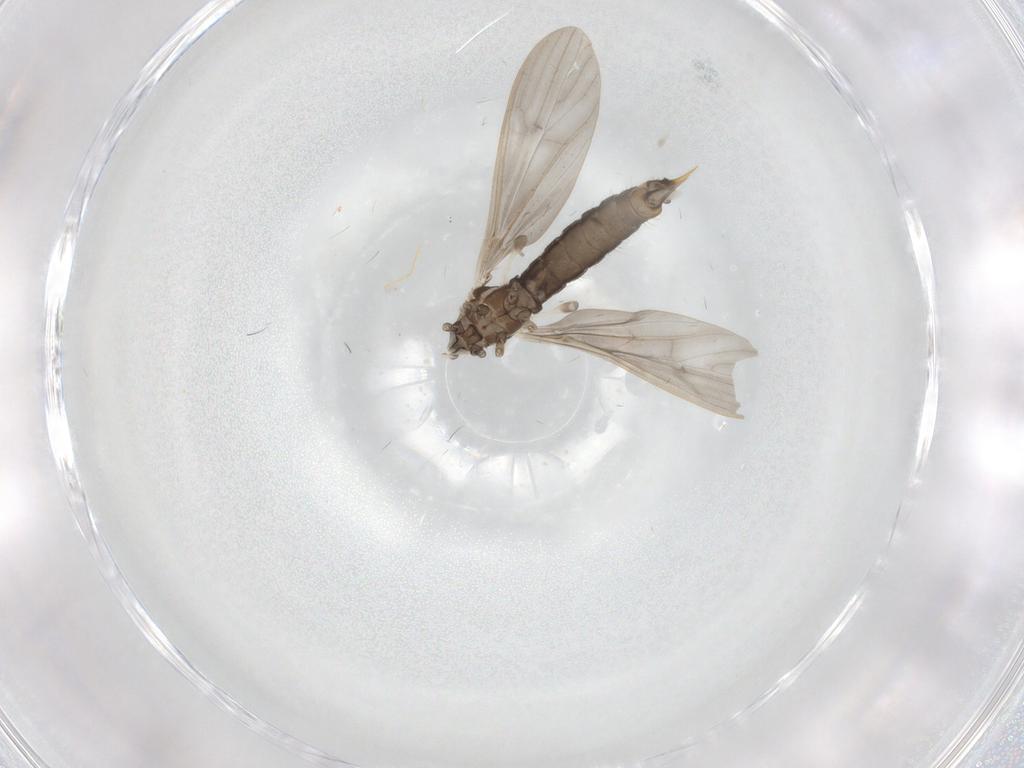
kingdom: Animalia
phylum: Arthropoda
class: Insecta
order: Diptera
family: Limoniidae
